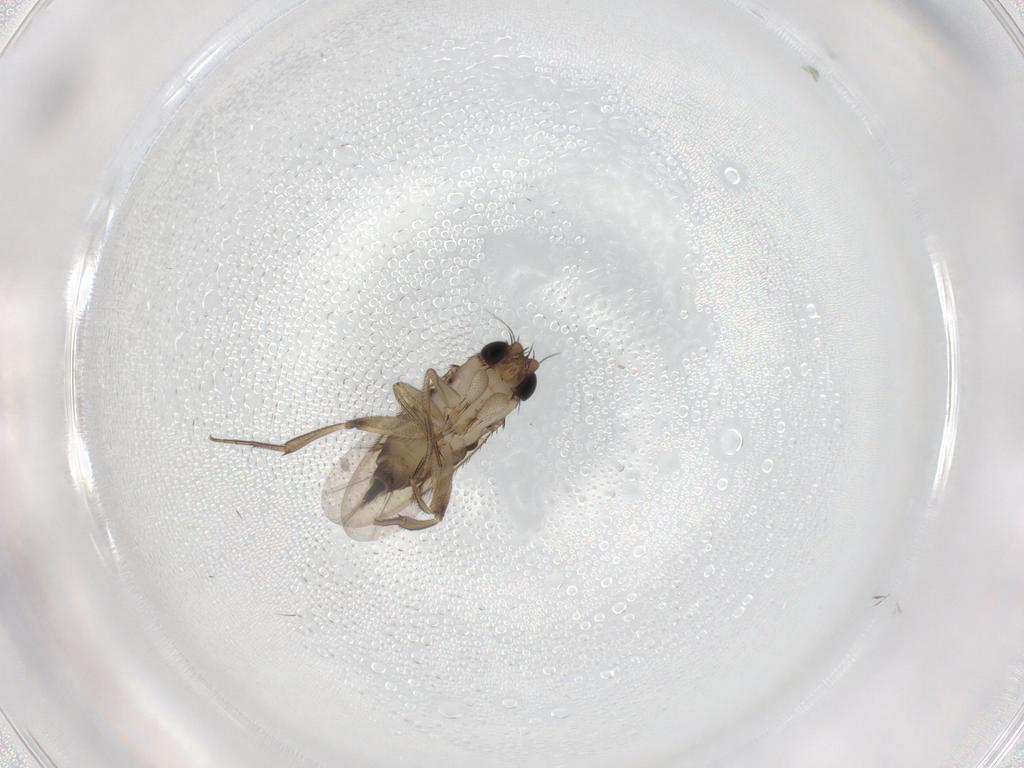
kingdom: Animalia
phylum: Arthropoda
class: Insecta
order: Diptera
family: Phoridae
